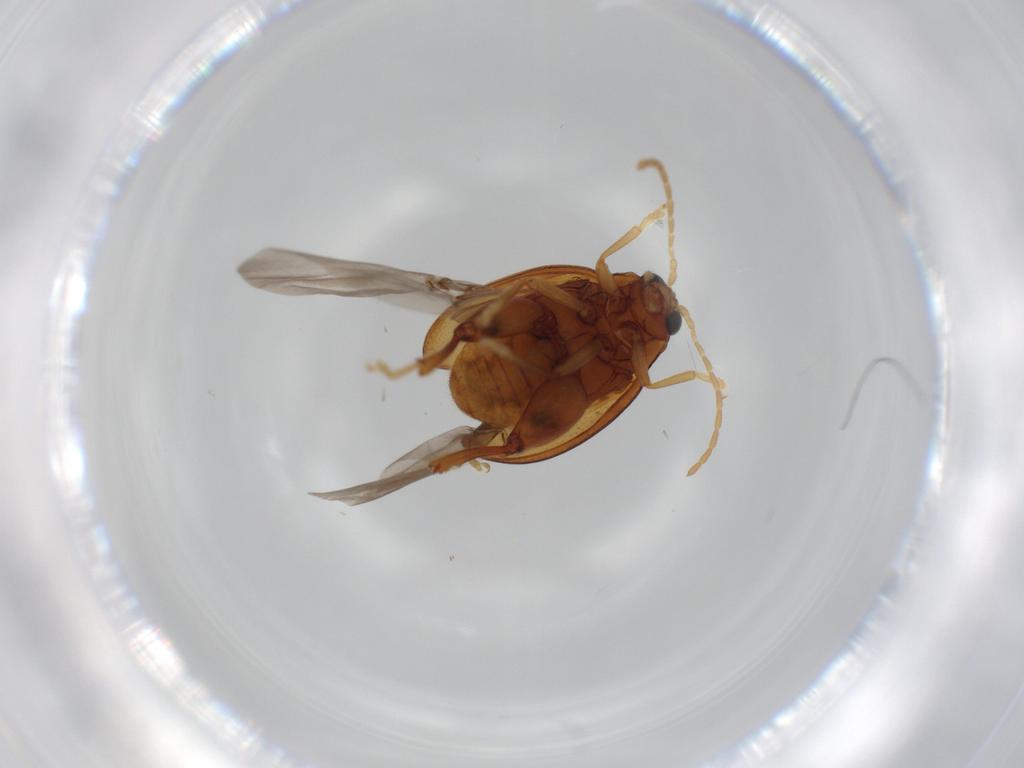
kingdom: Animalia
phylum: Arthropoda
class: Insecta
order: Coleoptera
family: Chrysomelidae
